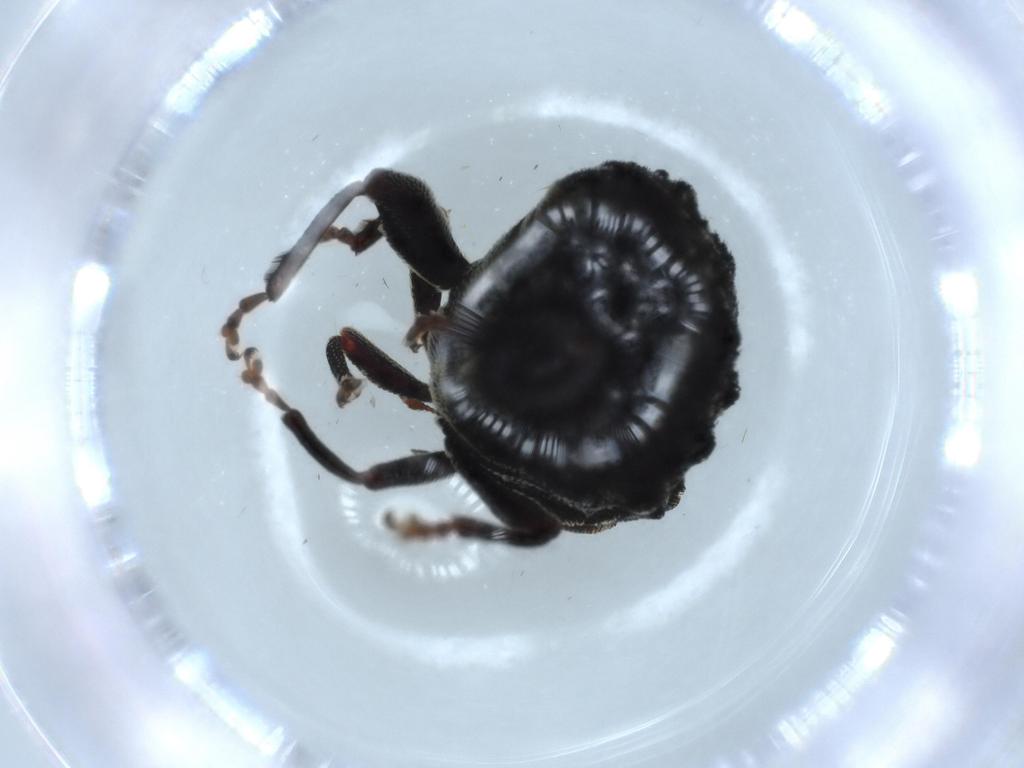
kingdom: Animalia
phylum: Arthropoda
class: Insecta
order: Coleoptera
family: Curculionidae
